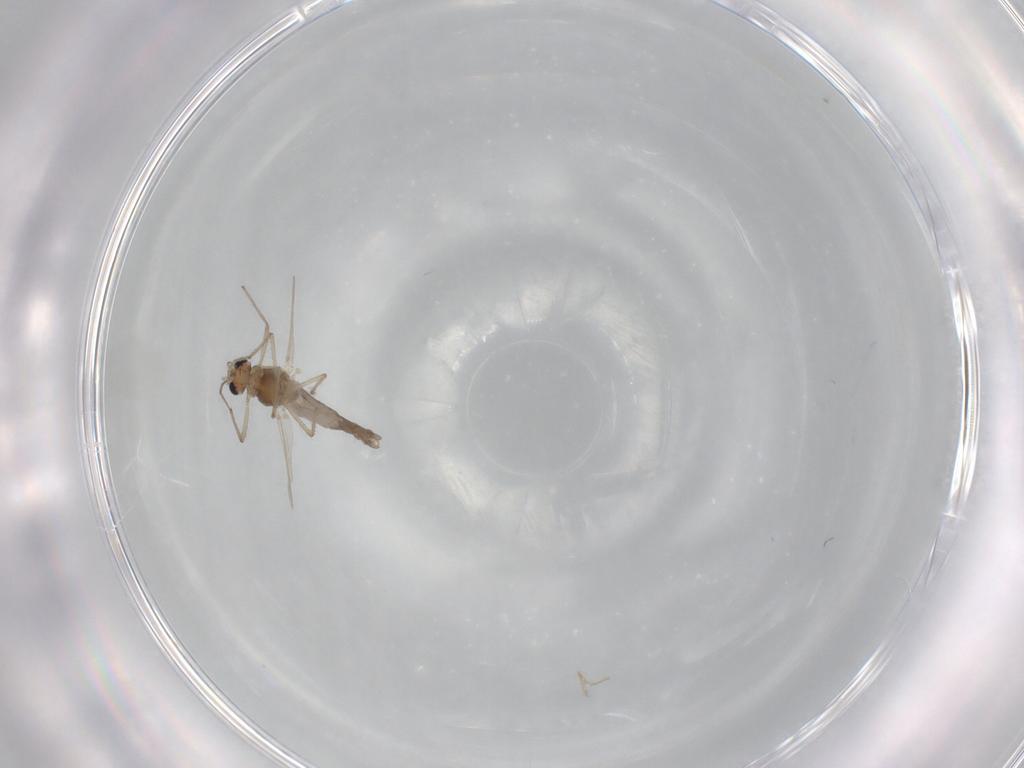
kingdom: Animalia
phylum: Arthropoda
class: Insecta
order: Diptera
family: Chironomidae
